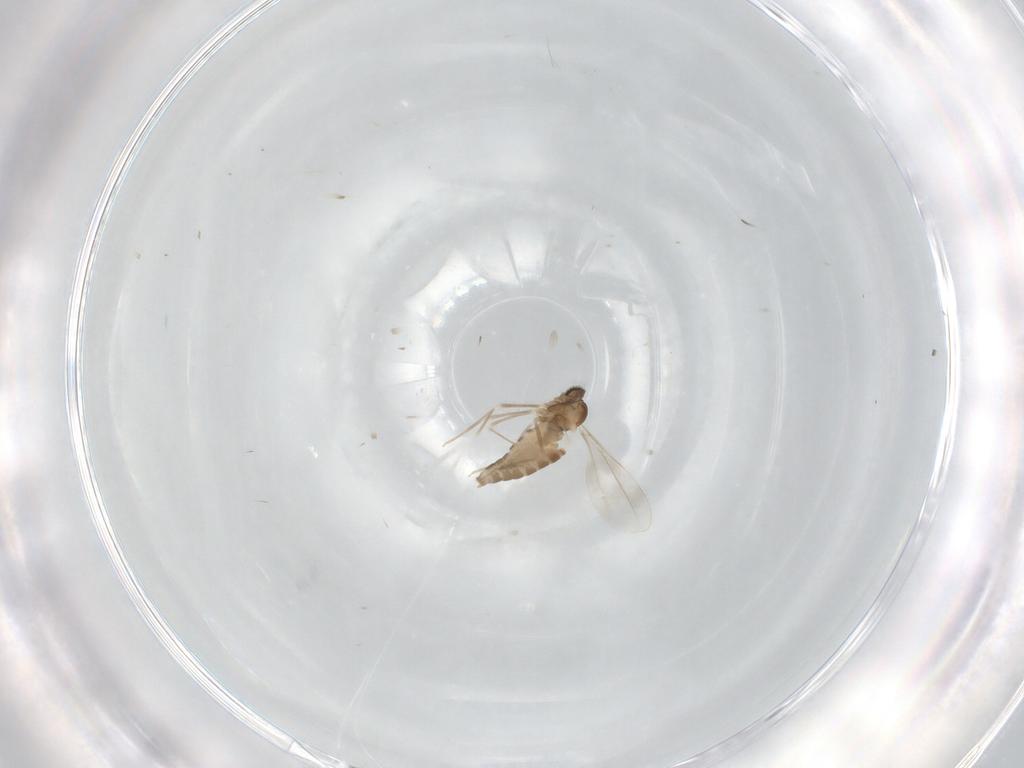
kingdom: Animalia
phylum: Arthropoda
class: Insecta
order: Diptera
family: Cecidomyiidae
